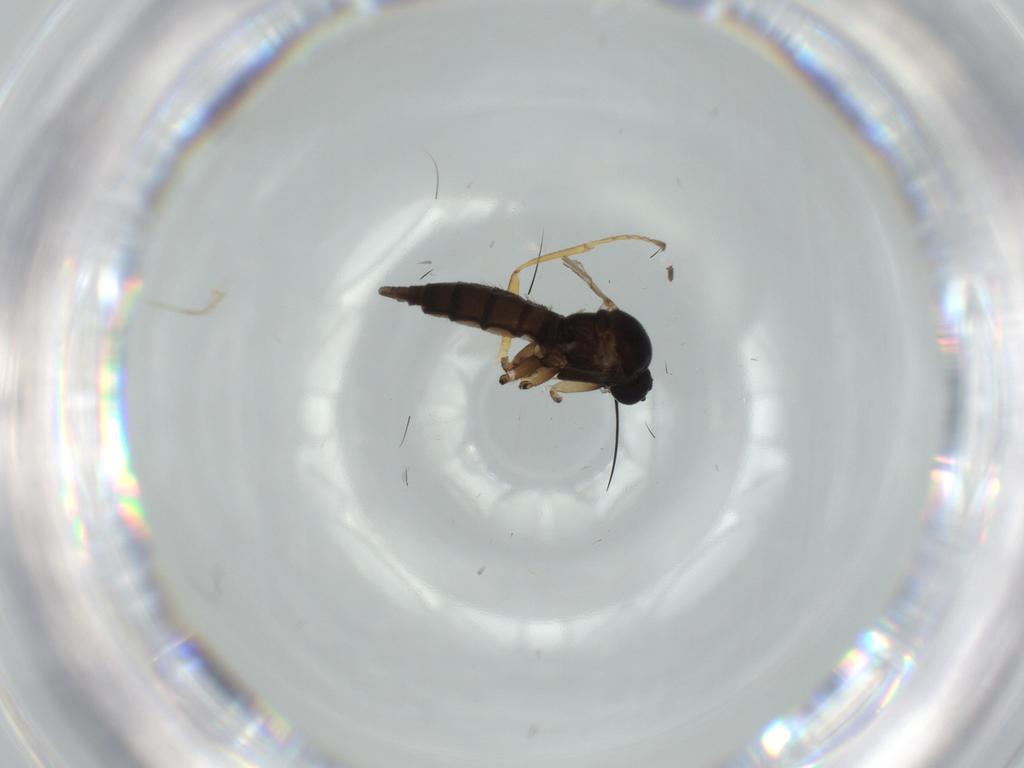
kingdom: Animalia
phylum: Arthropoda
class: Insecta
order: Diptera
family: Sciaridae
